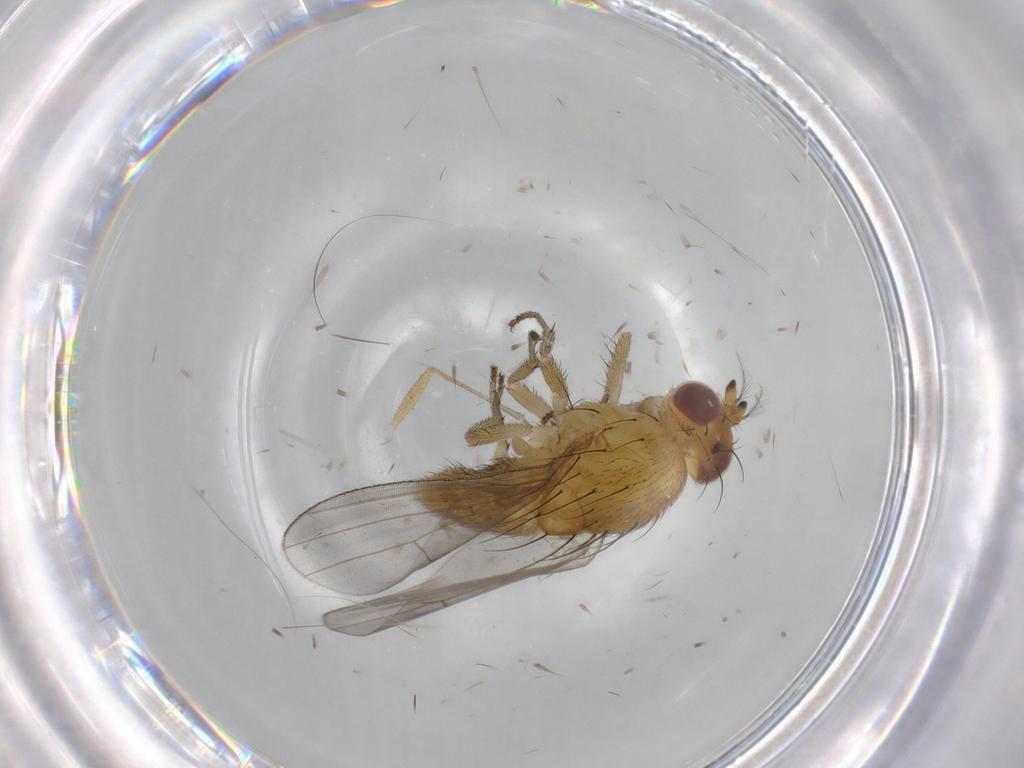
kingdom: Animalia
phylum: Arthropoda
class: Insecta
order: Diptera
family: Lauxaniidae
